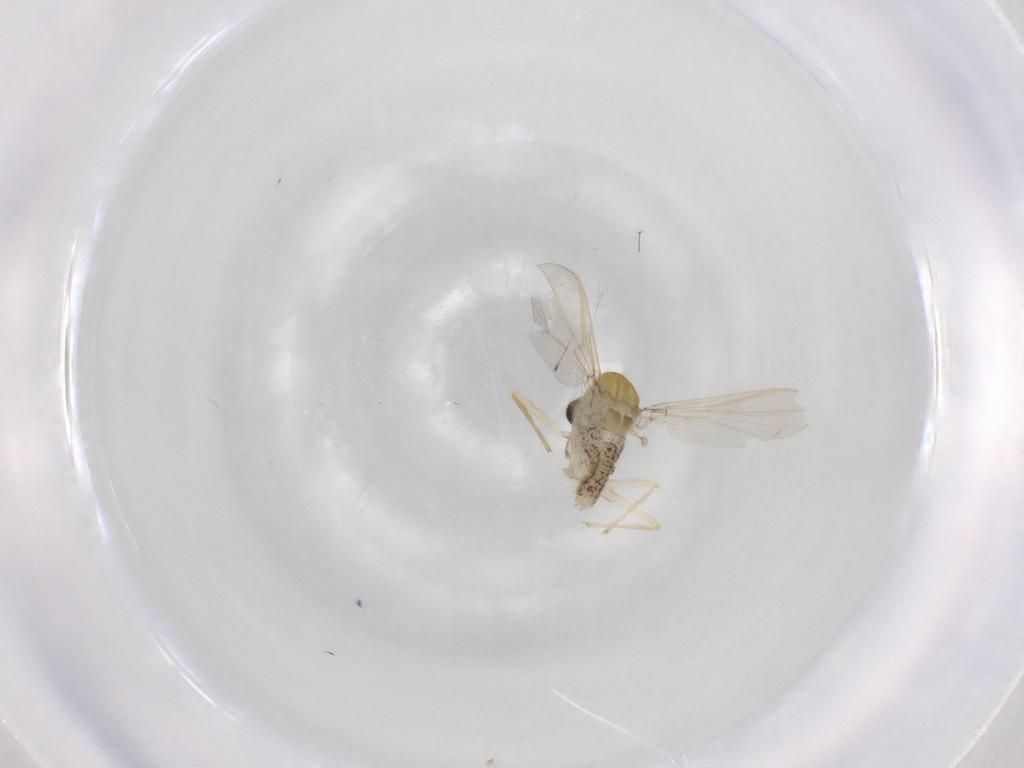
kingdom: Animalia
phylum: Arthropoda
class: Insecta
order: Diptera
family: Chironomidae
